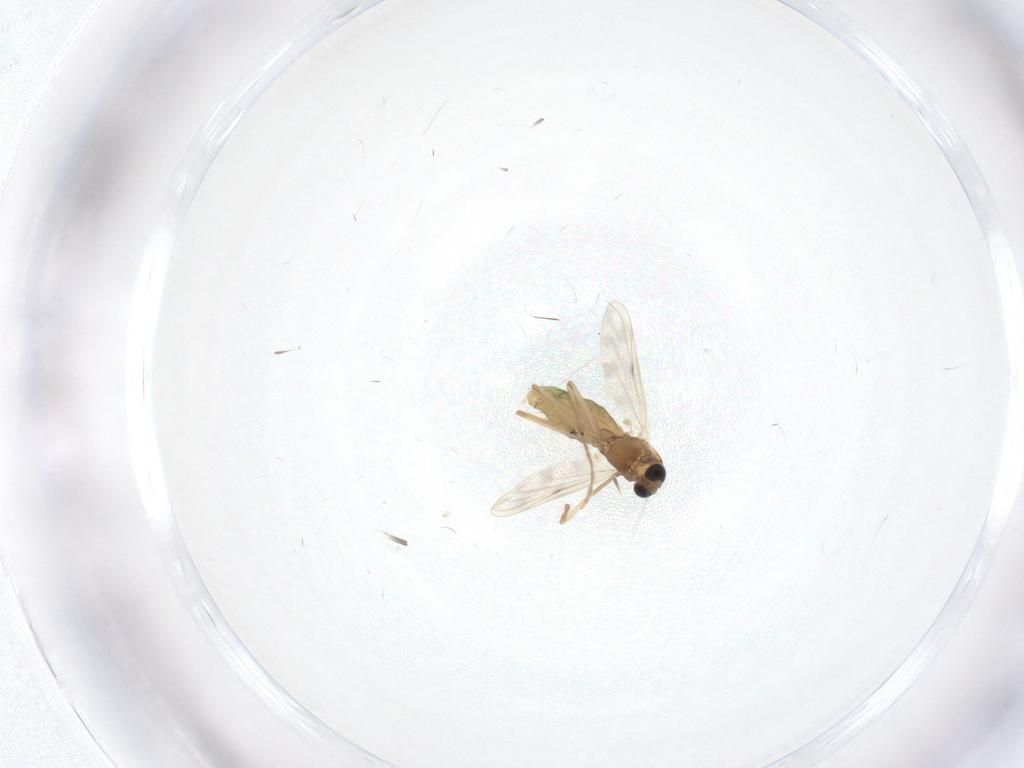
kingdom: Animalia
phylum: Arthropoda
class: Insecta
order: Diptera
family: Chironomidae
